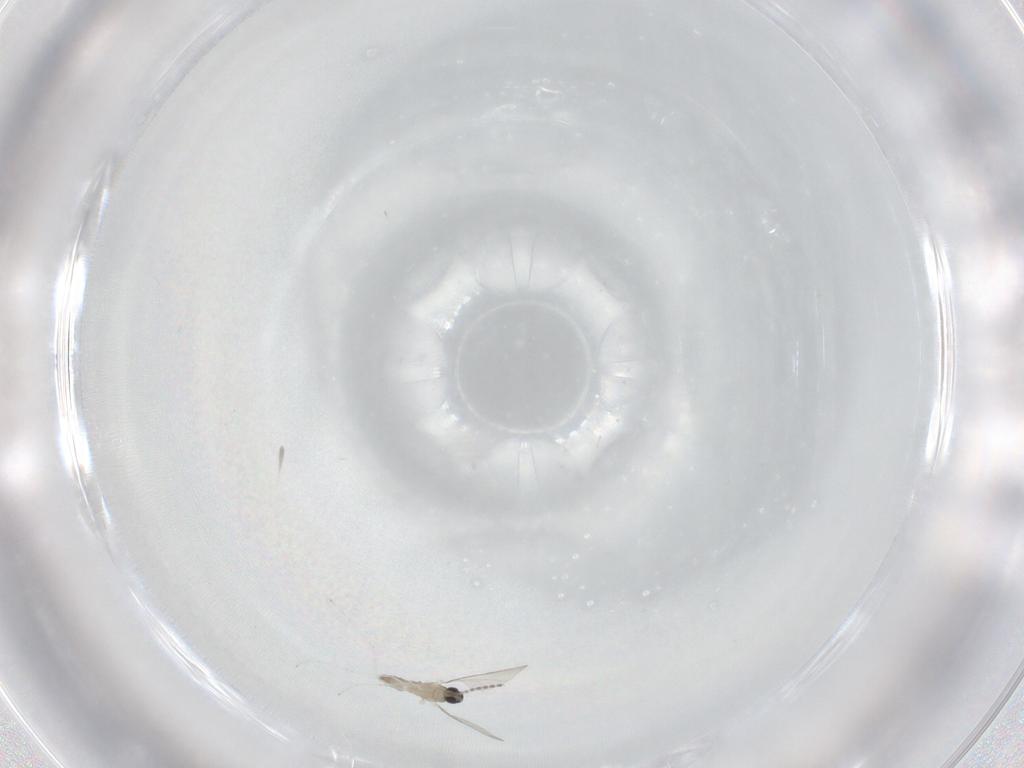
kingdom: Animalia
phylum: Arthropoda
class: Insecta
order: Diptera
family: Cecidomyiidae
